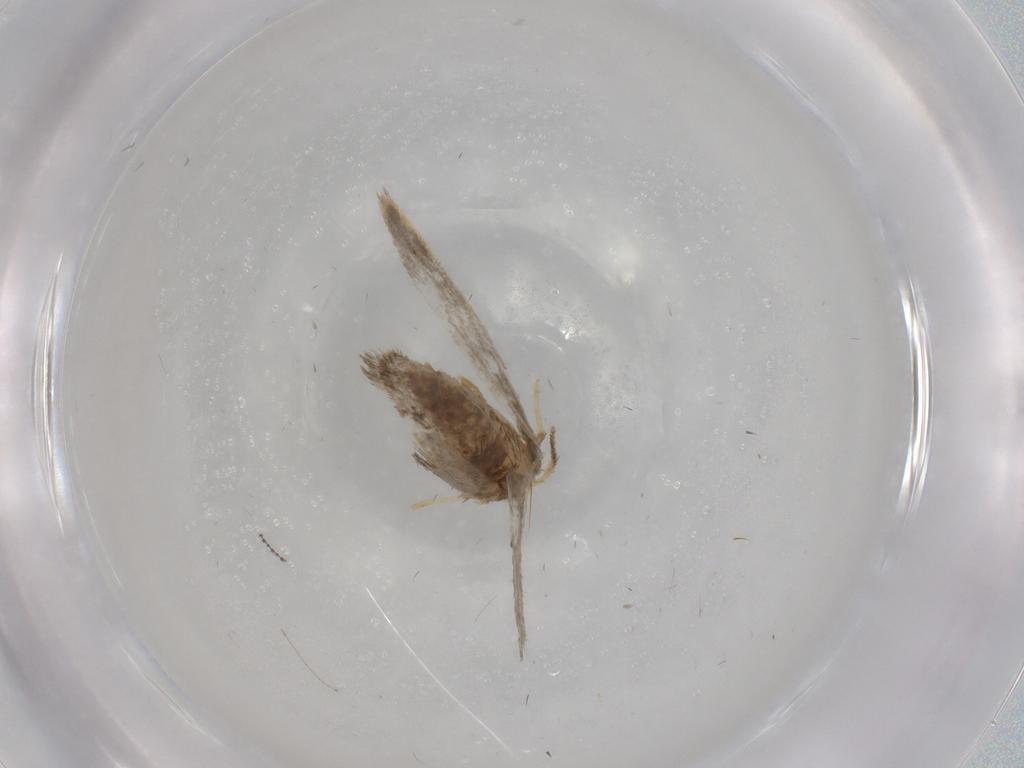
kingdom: Animalia
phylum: Arthropoda
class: Insecta
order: Lepidoptera
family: Psychidae
